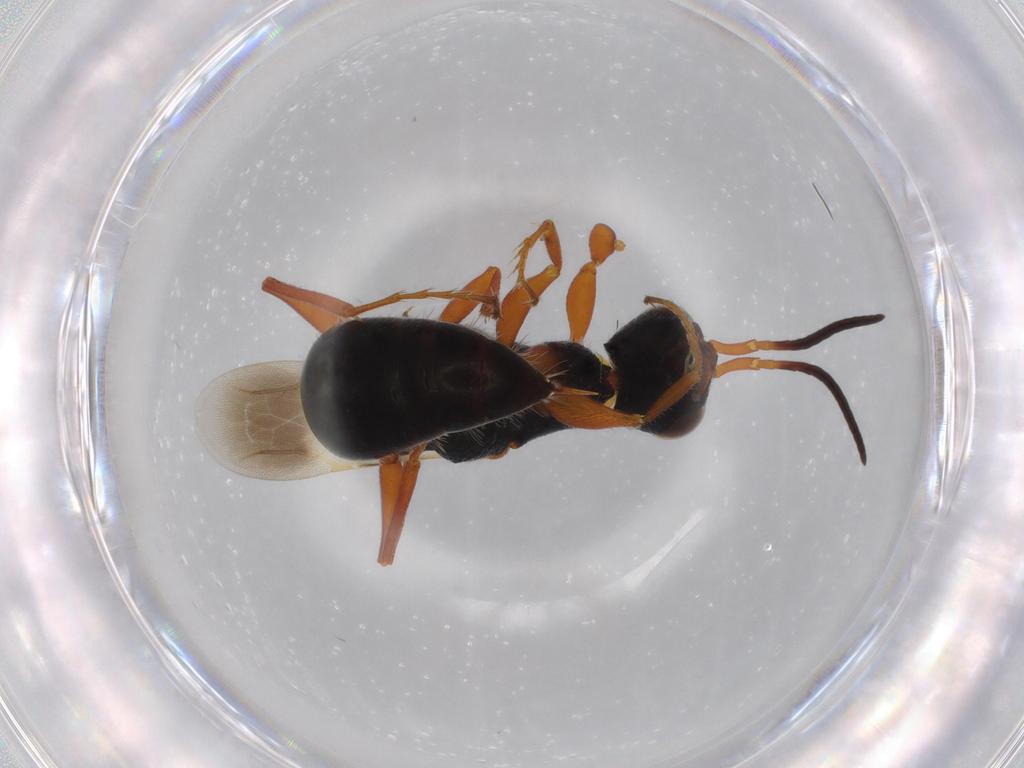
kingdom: Animalia
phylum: Arthropoda
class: Insecta
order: Hymenoptera
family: Bethylidae
